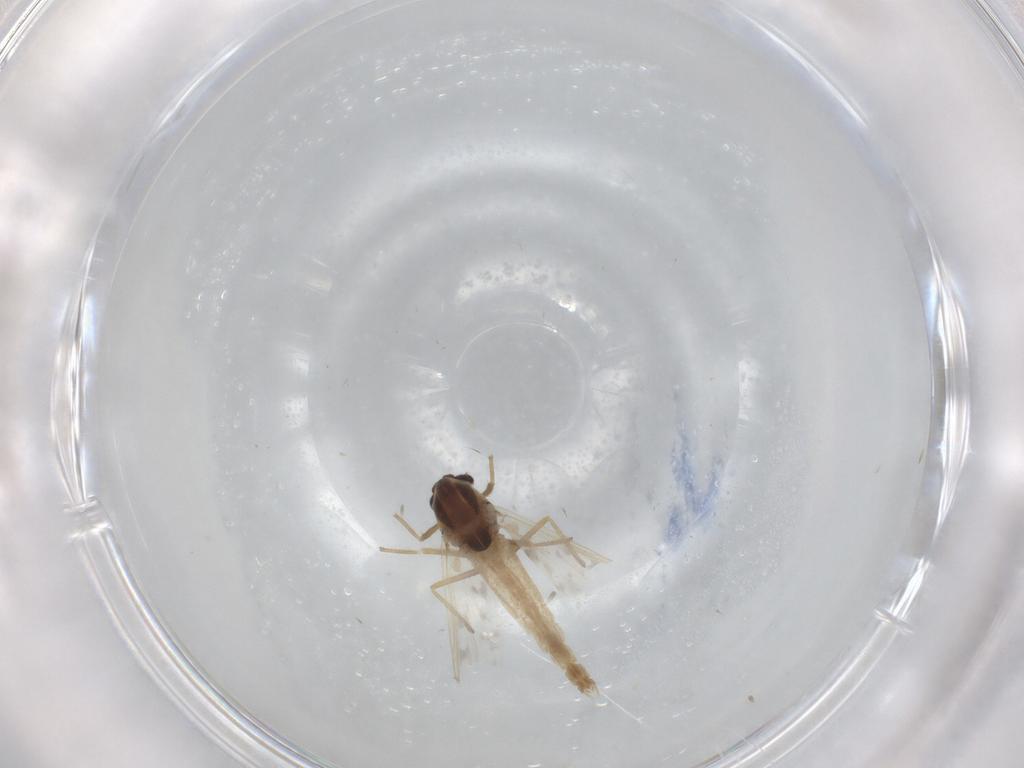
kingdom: Animalia
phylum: Arthropoda
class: Insecta
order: Diptera
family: Chironomidae
